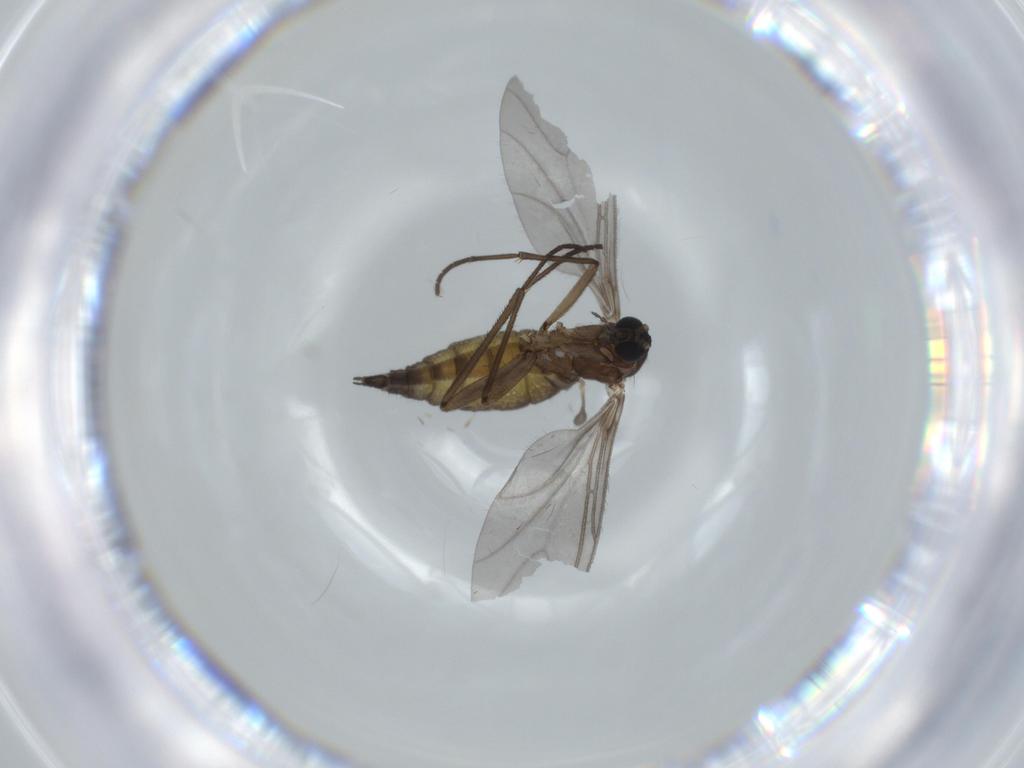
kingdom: Animalia
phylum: Arthropoda
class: Insecta
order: Diptera
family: Sciaridae
